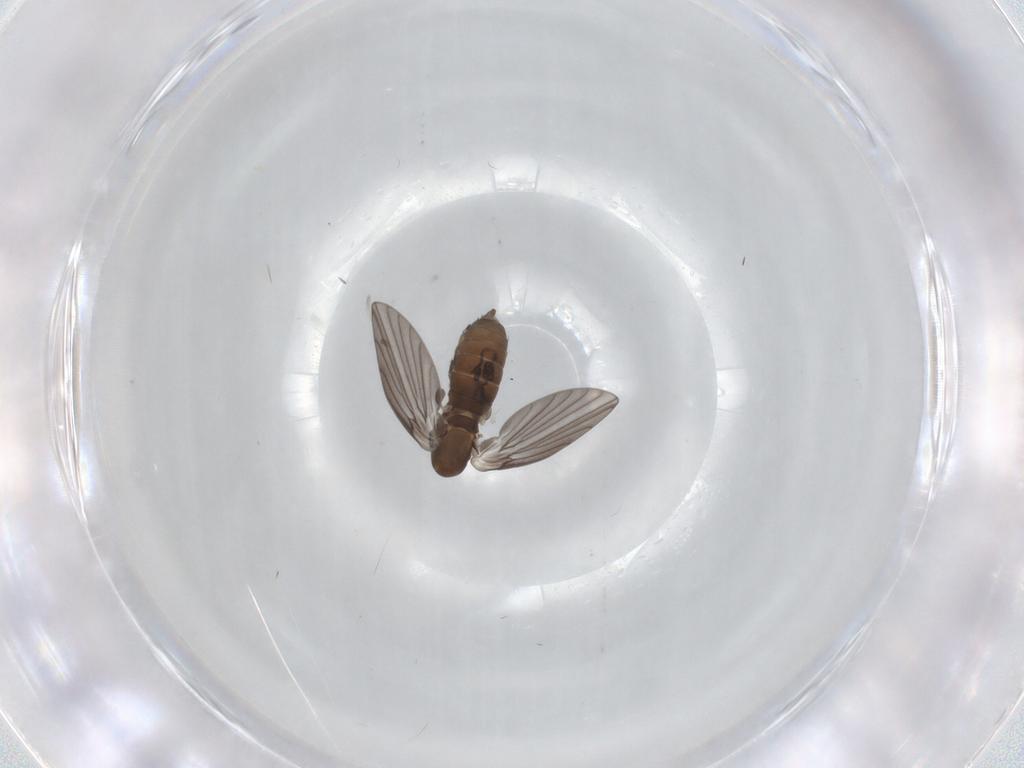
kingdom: Animalia
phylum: Arthropoda
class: Insecta
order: Diptera
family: Psychodidae
